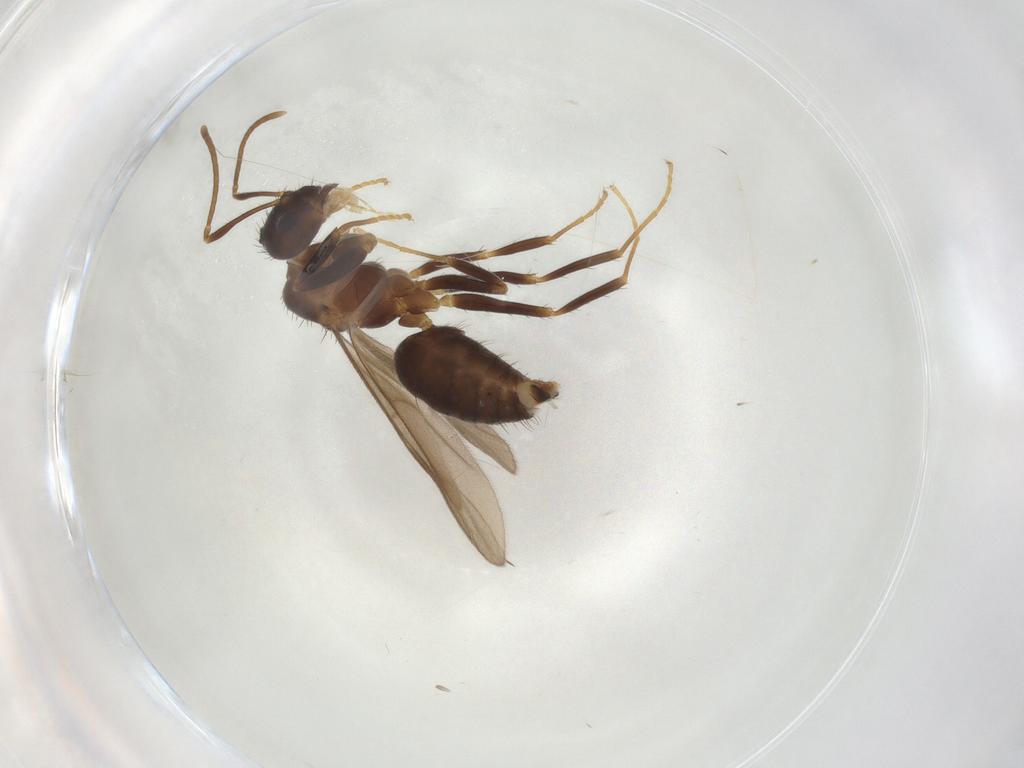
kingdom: Animalia
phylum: Arthropoda
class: Insecta
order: Hymenoptera
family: Formicidae
